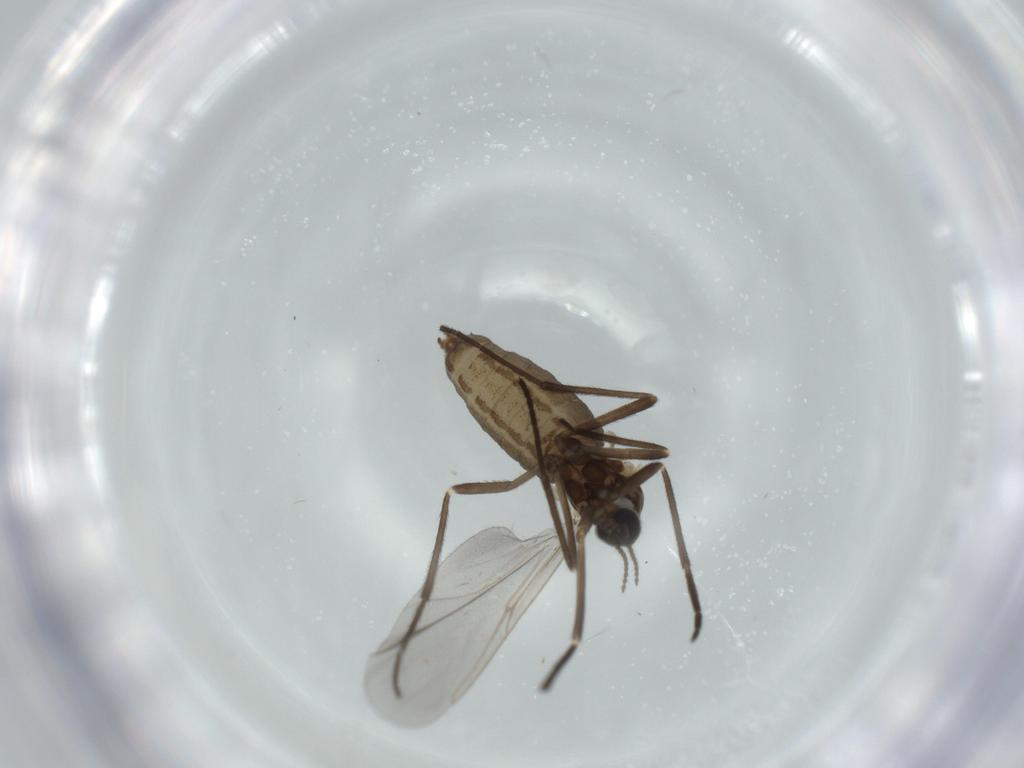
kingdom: Animalia
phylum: Arthropoda
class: Insecta
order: Diptera
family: Cecidomyiidae
